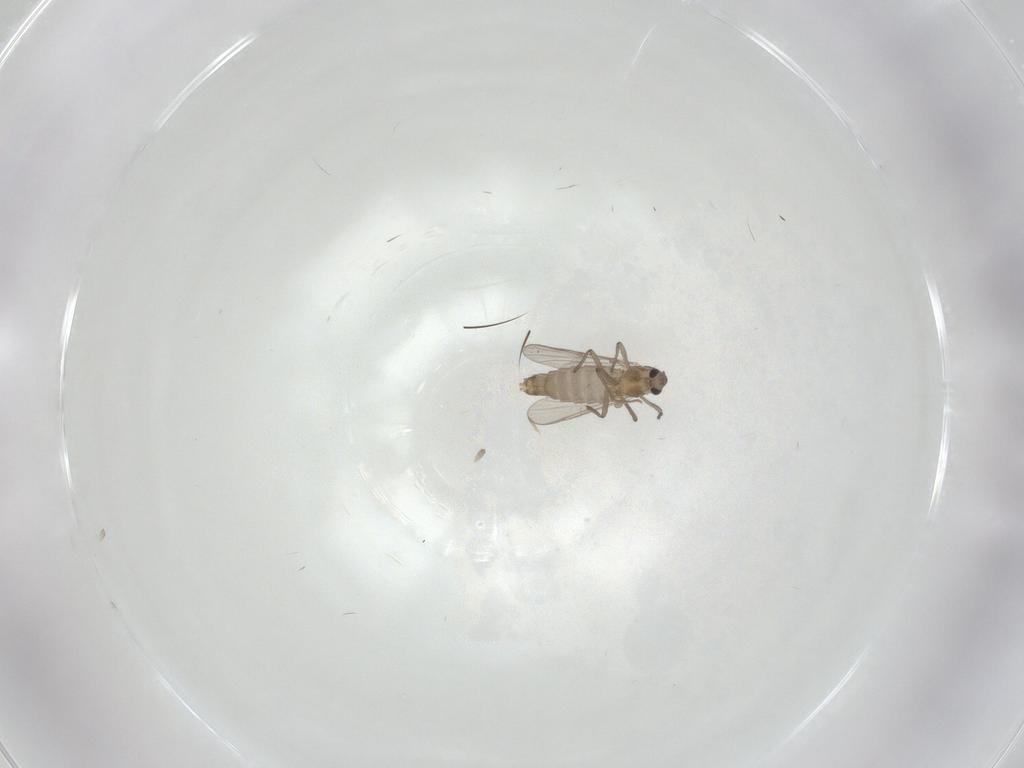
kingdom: Animalia
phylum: Arthropoda
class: Insecta
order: Diptera
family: Chironomidae
